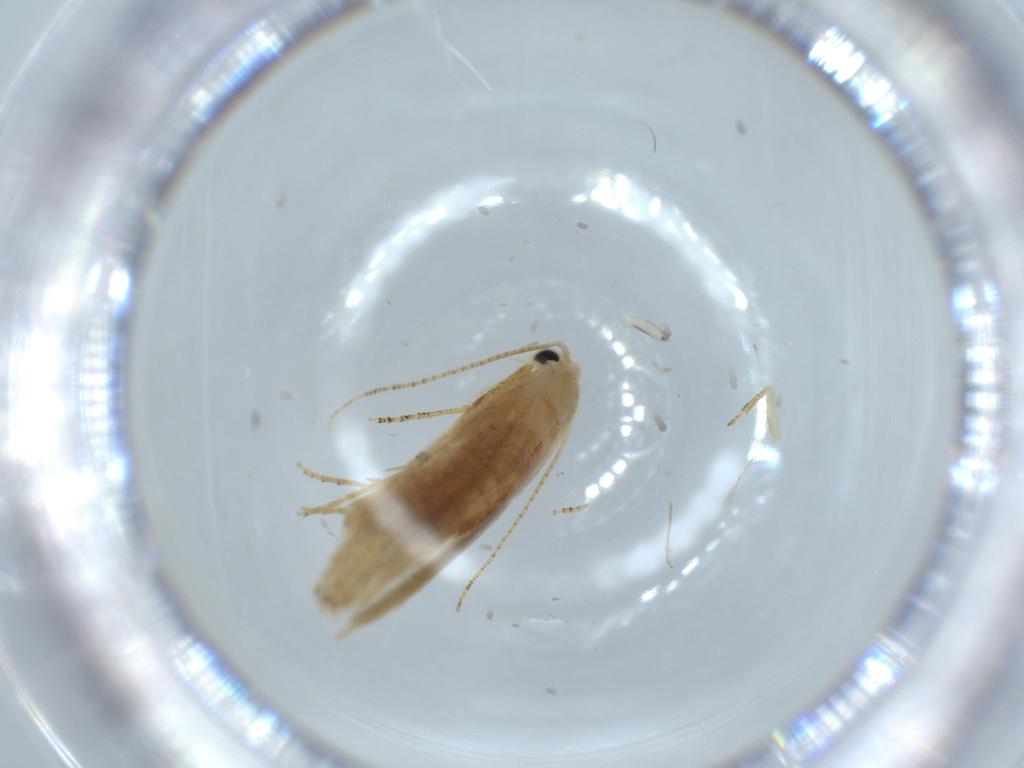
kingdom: Animalia
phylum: Arthropoda
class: Insecta
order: Lepidoptera
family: Bucculatricidae
